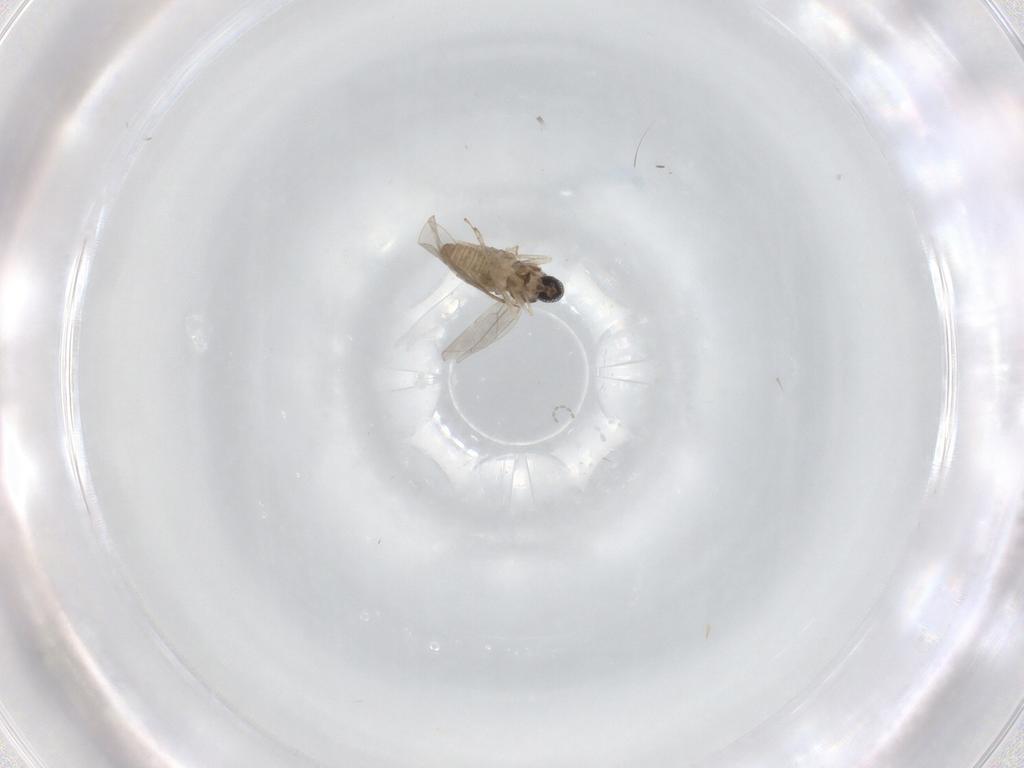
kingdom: Animalia
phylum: Arthropoda
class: Insecta
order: Diptera
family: Cecidomyiidae
